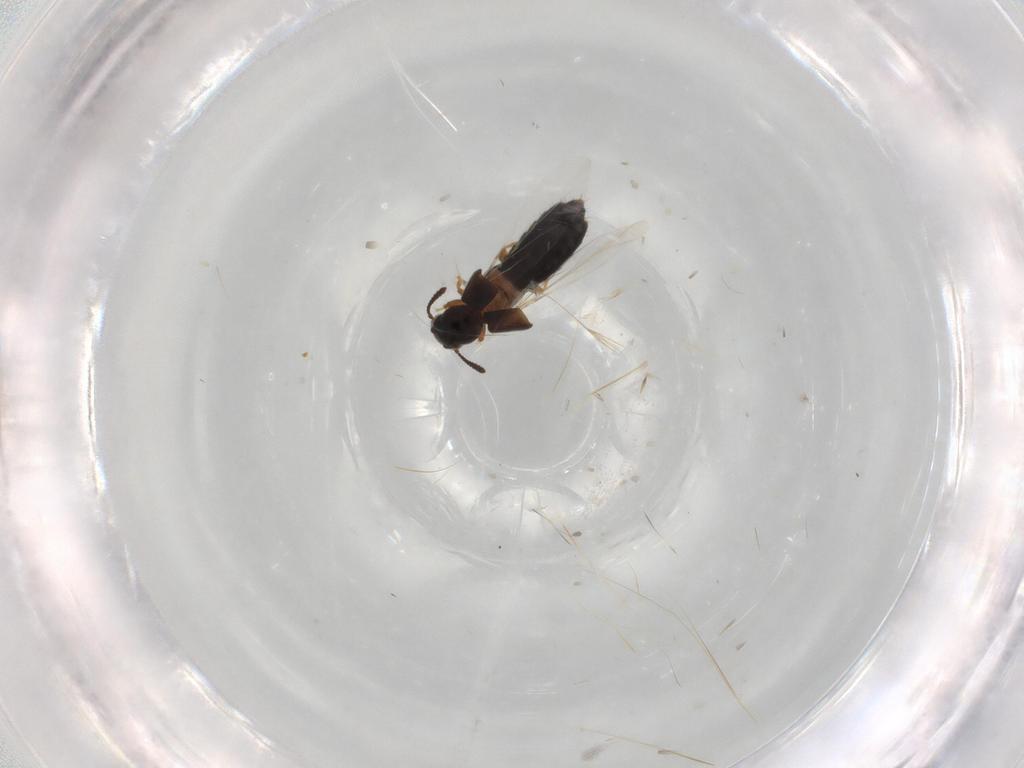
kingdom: Animalia
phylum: Arthropoda
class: Insecta
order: Coleoptera
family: Staphylinidae
